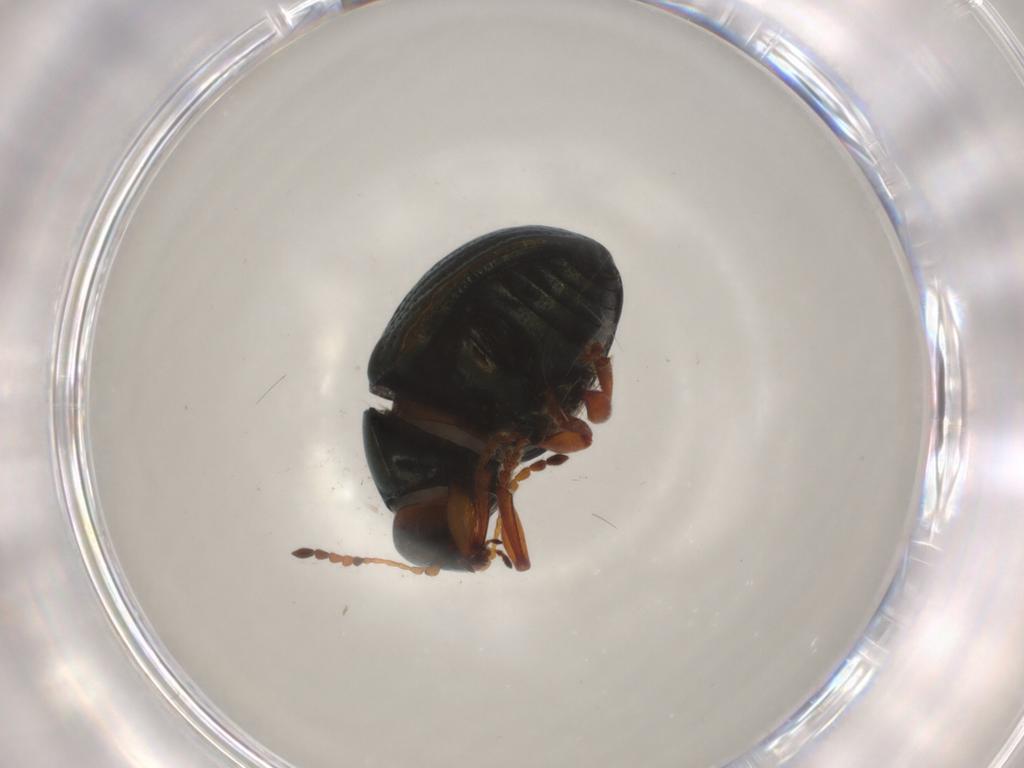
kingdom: Animalia
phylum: Arthropoda
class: Insecta
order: Coleoptera
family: Chrysomelidae
